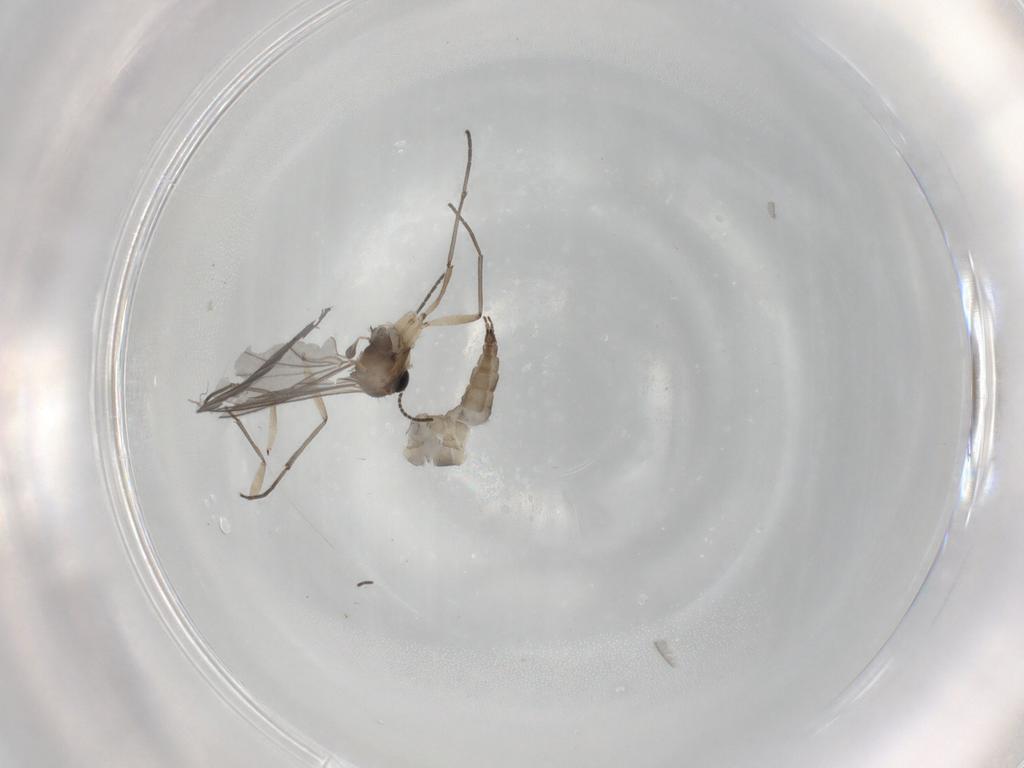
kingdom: Animalia
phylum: Arthropoda
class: Insecta
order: Diptera
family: Sciaridae
